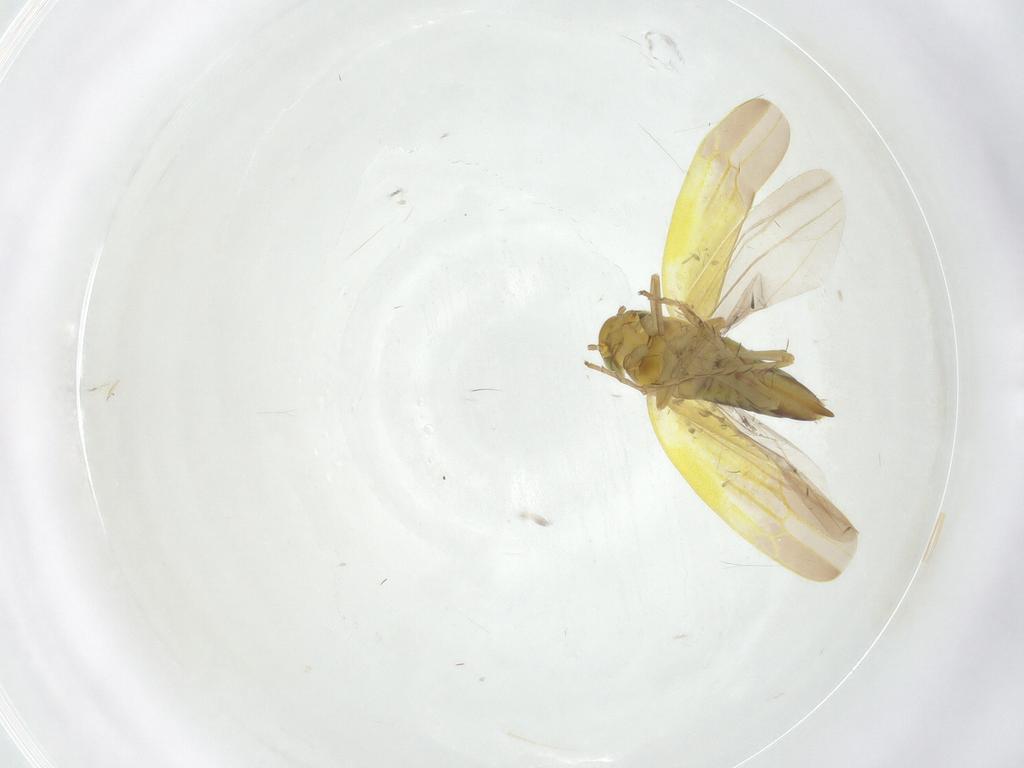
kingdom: Animalia
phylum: Arthropoda
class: Insecta
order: Hemiptera
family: Cicadellidae
